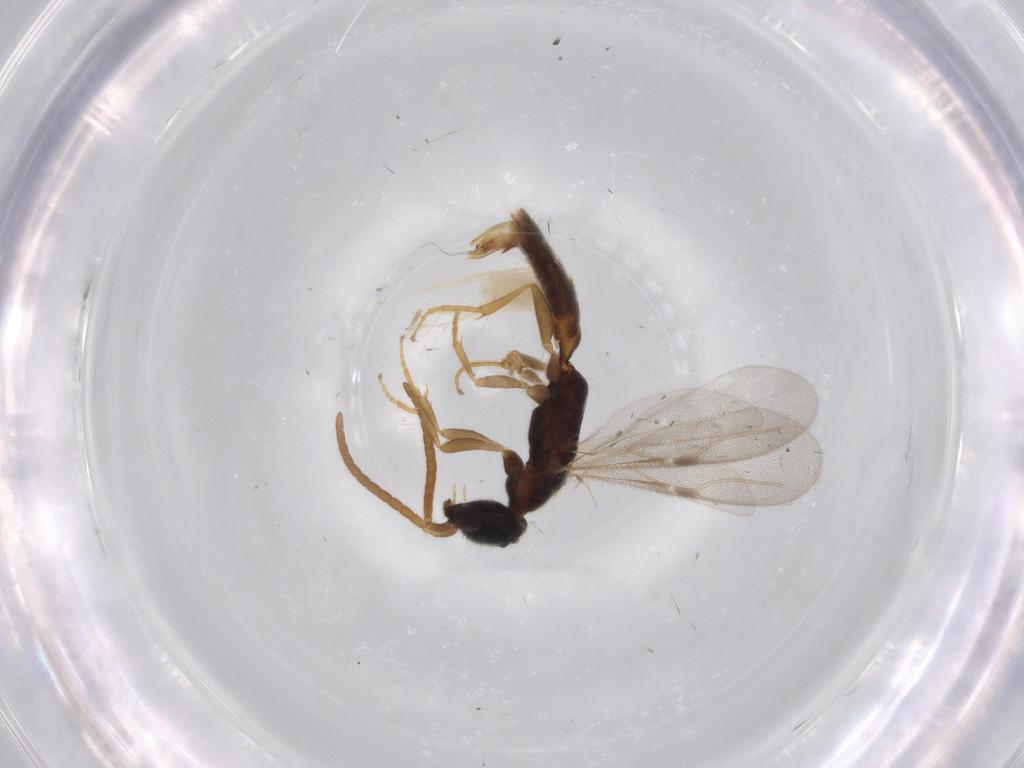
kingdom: Animalia
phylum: Arthropoda
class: Insecta
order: Hymenoptera
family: Bethylidae
